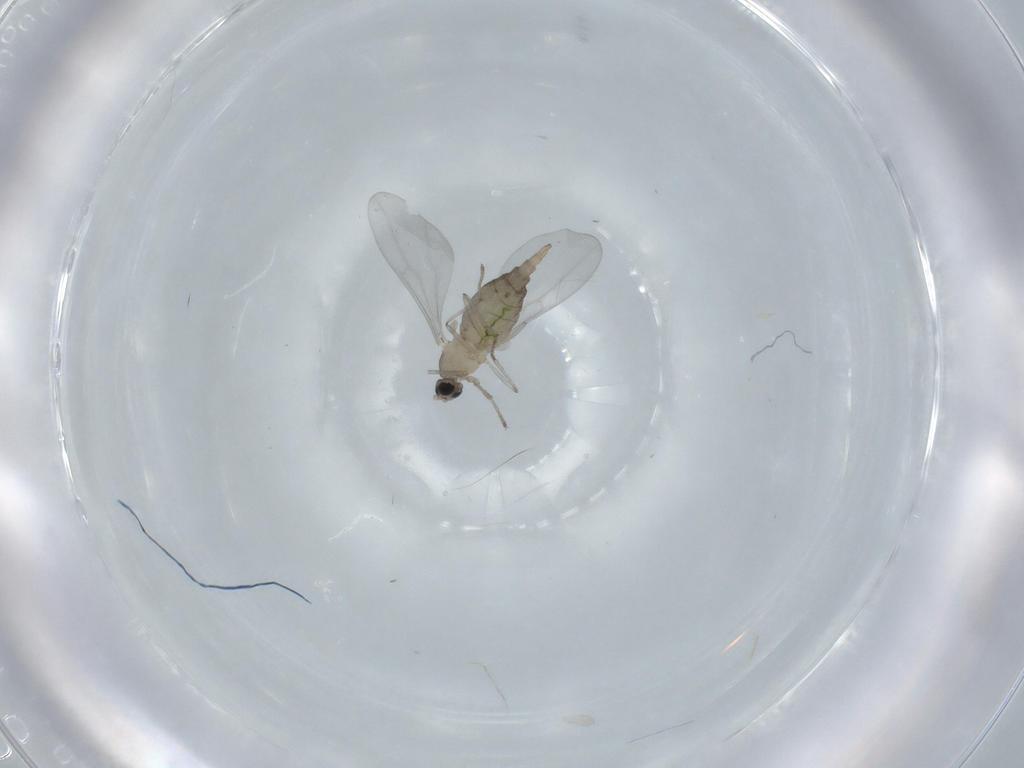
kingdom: Animalia
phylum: Arthropoda
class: Insecta
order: Diptera
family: Cecidomyiidae
